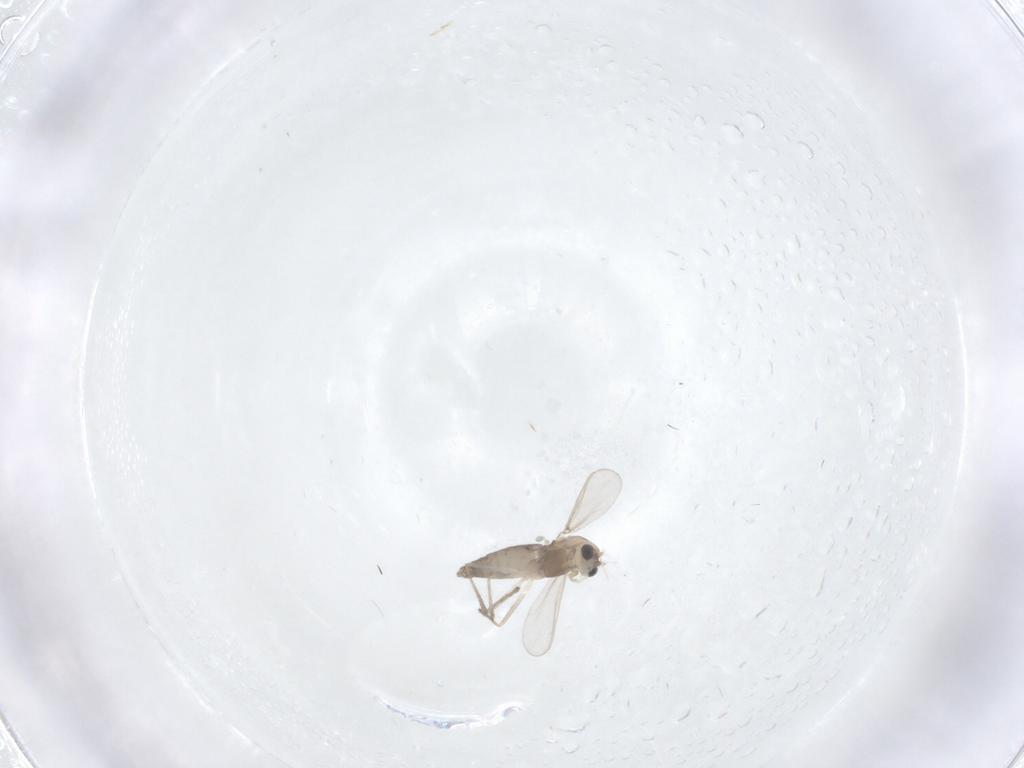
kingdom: Animalia
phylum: Arthropoda
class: Insecta
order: Diptera
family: Chironomidae
